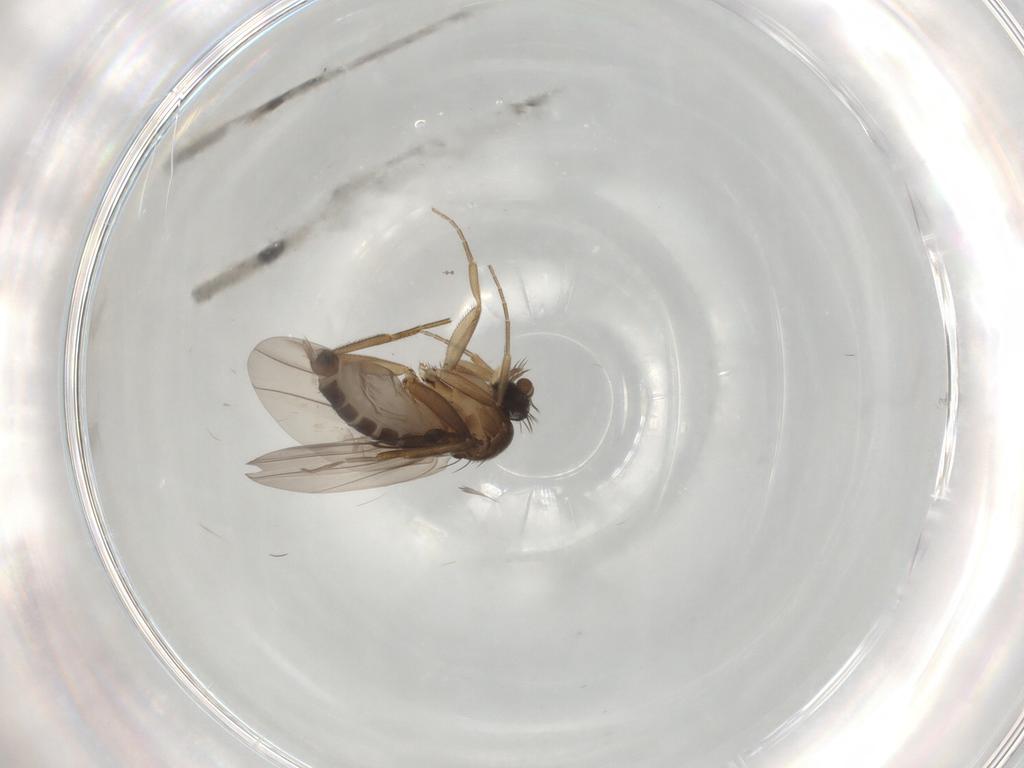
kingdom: Animalia
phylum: Arthropoda
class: Insecta
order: Diptera
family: Phoridae
